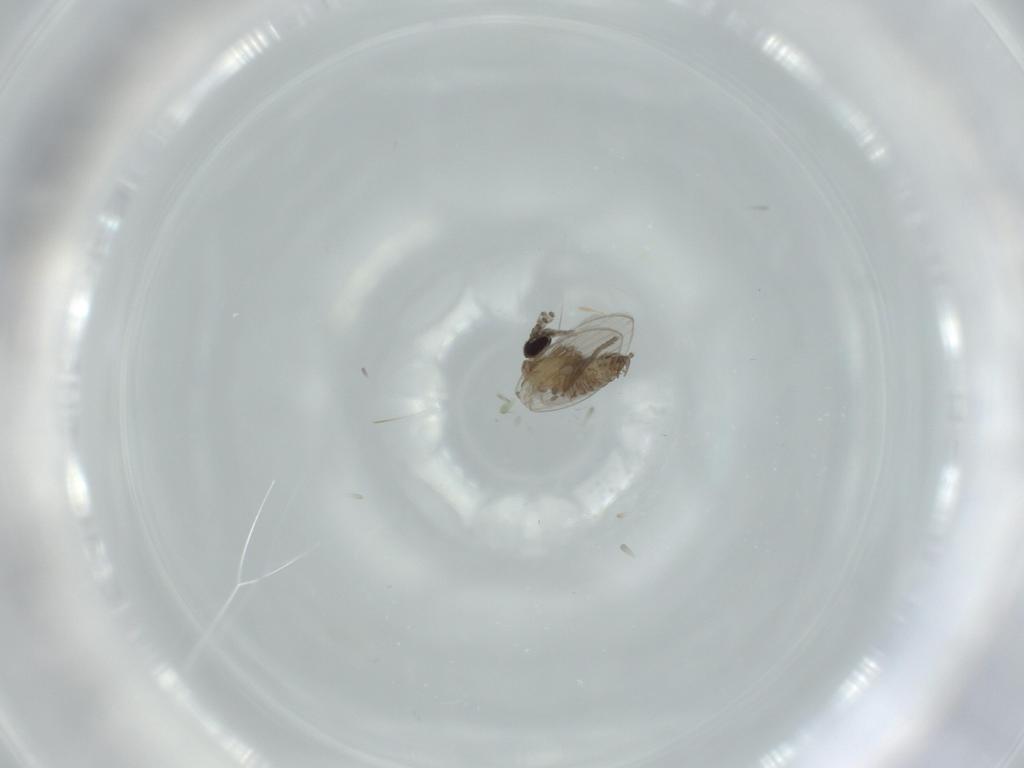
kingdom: Animalia
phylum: Arthropoda
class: Insecta
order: Diptera
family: Psychodidae
